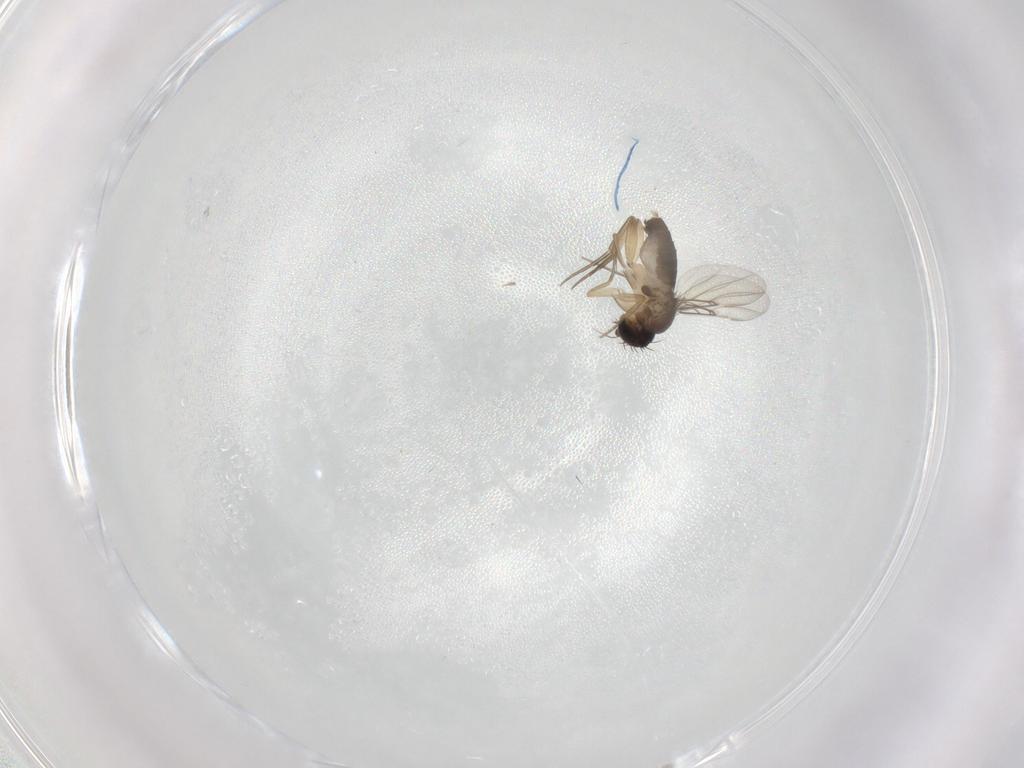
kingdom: Animalia
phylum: Arthropoda
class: Insecta
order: Diptera
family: Phoridae
